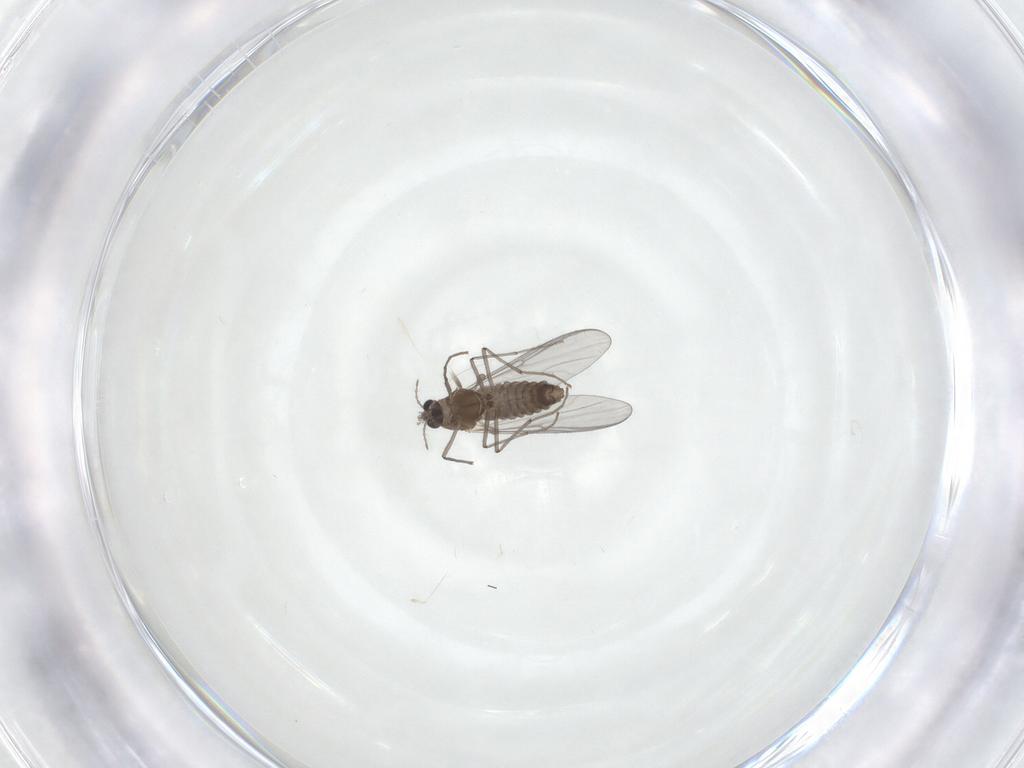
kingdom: Animalia
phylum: Arthropoda
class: Insecta
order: Diptera
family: Chironomidae
